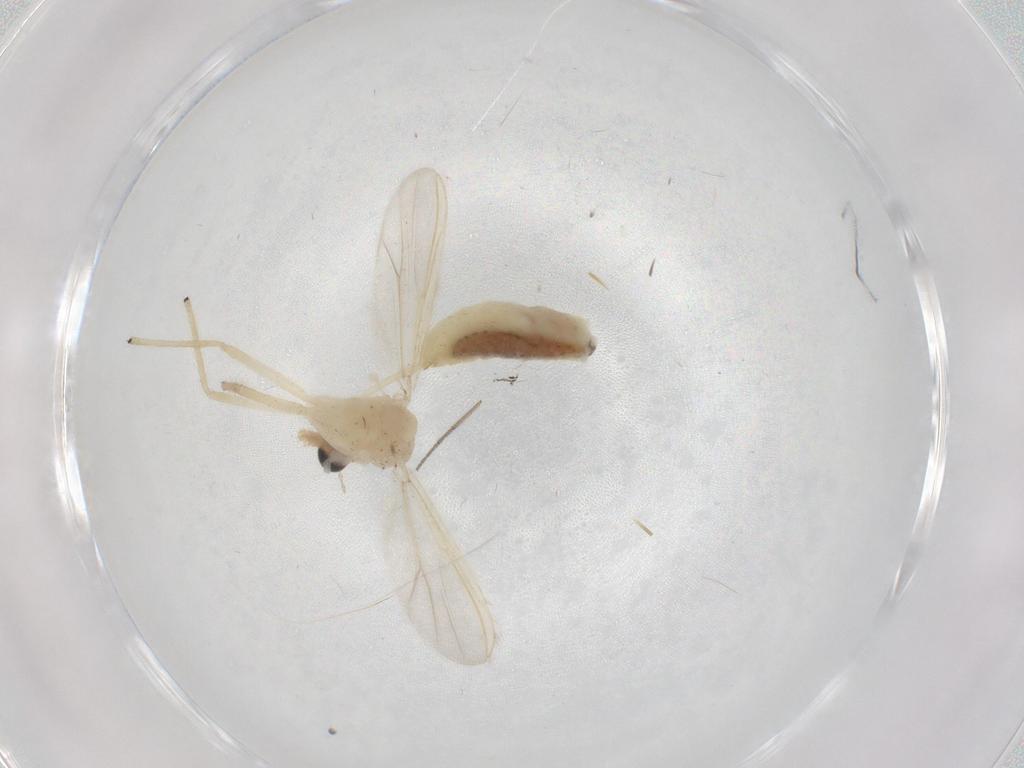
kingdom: Animalia
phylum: Arthropoda
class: Insecta
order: Diptera
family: Chironomidae
